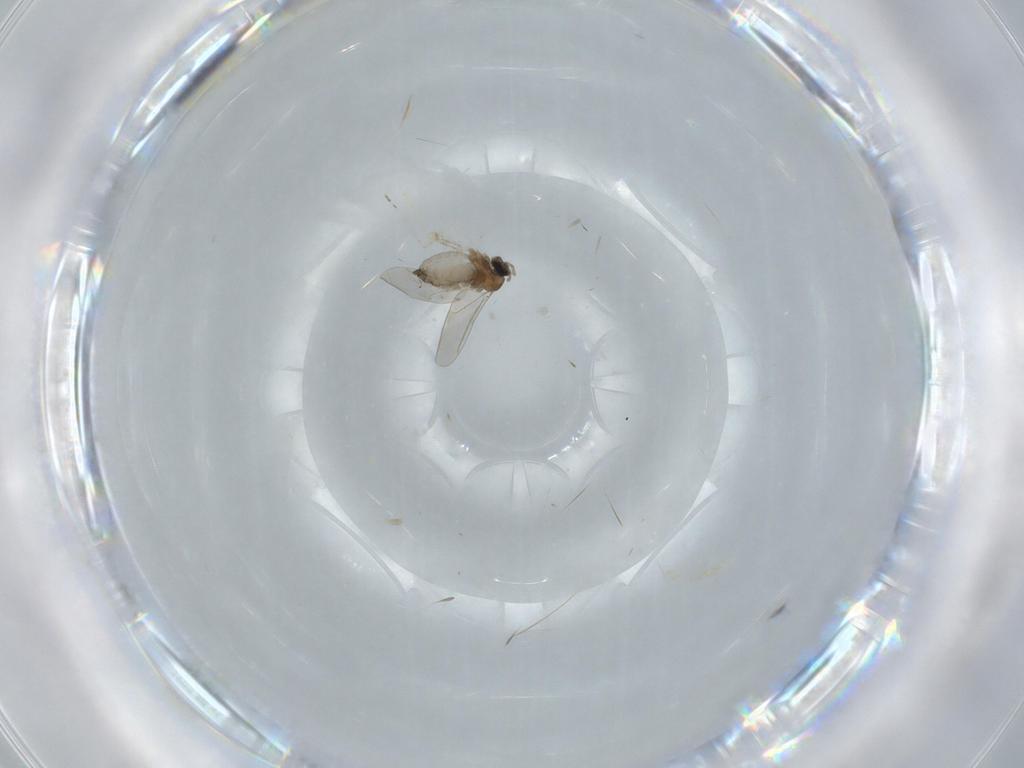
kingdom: Animalia
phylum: Arthropoda
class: Insecta
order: Diptera
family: Cecidomyiidae
